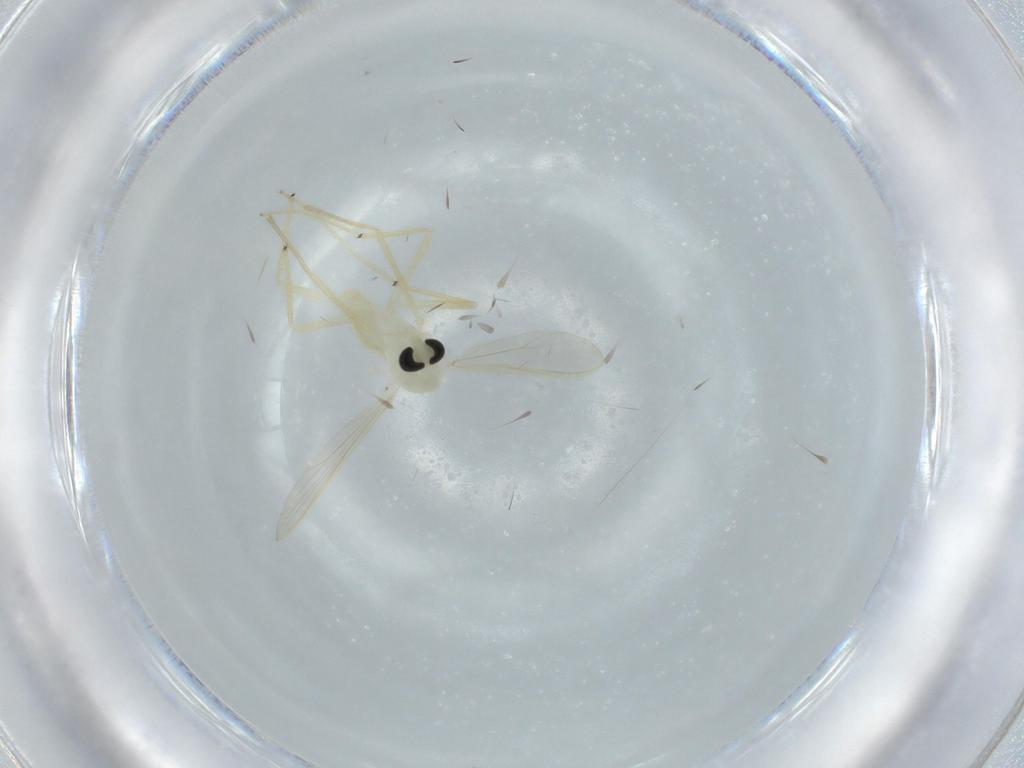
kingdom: Animalia
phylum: Arthropoda
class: Insecta
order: Diptera
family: Chironomidae
